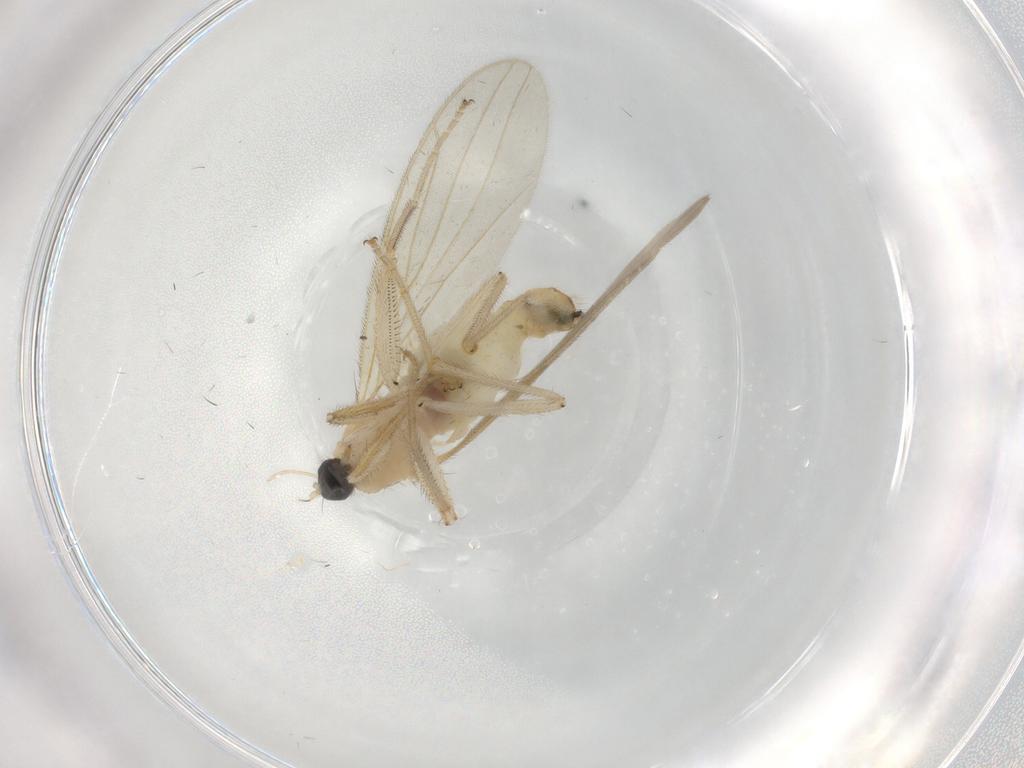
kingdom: Animalia
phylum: Arthropoda
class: Insecta
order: Diptera
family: Hybotidae
